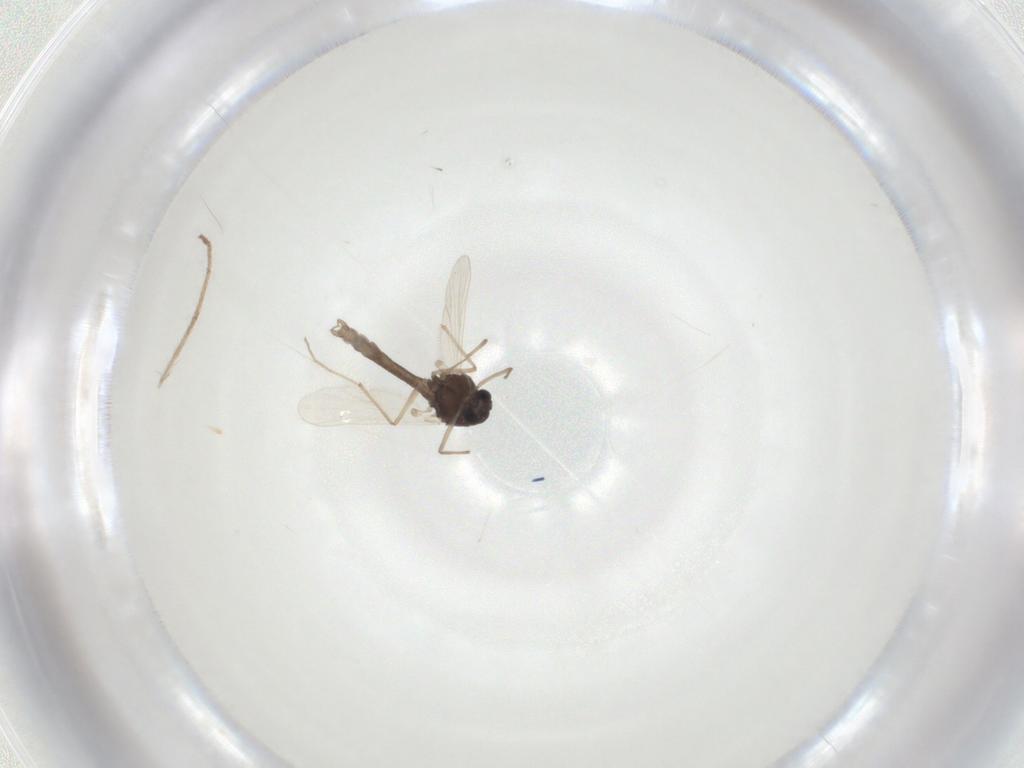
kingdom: Animalia
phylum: Arthropoda
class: Insecta
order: Diptera
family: Chironomidae
